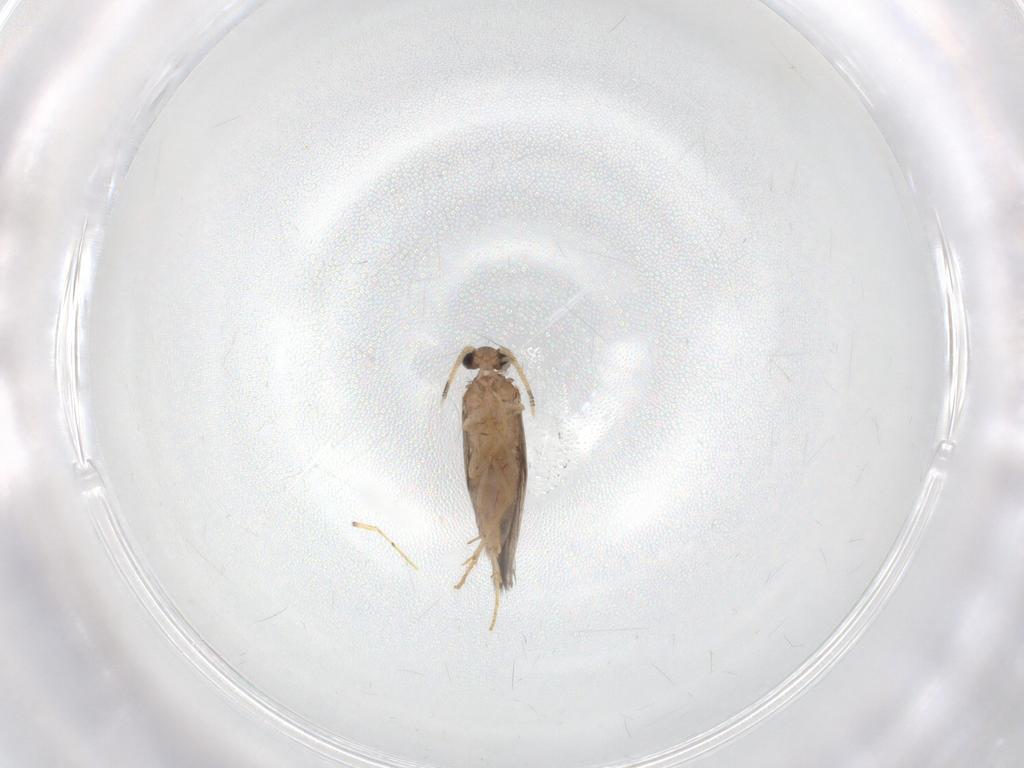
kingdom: Animalia
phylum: Arthropoda
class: Insecta
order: Trichoptera
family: Hydroptilidae
